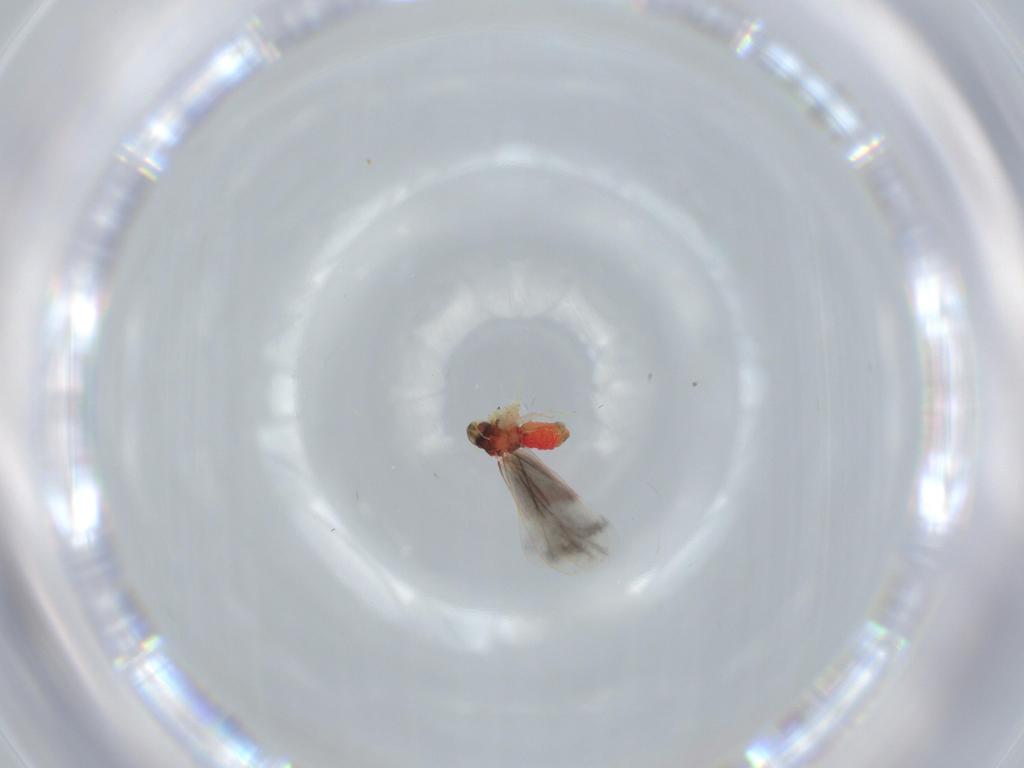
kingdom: Animalia
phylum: Arthropoda
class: Insecta
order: Hemiptera
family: Aleyrodidae
